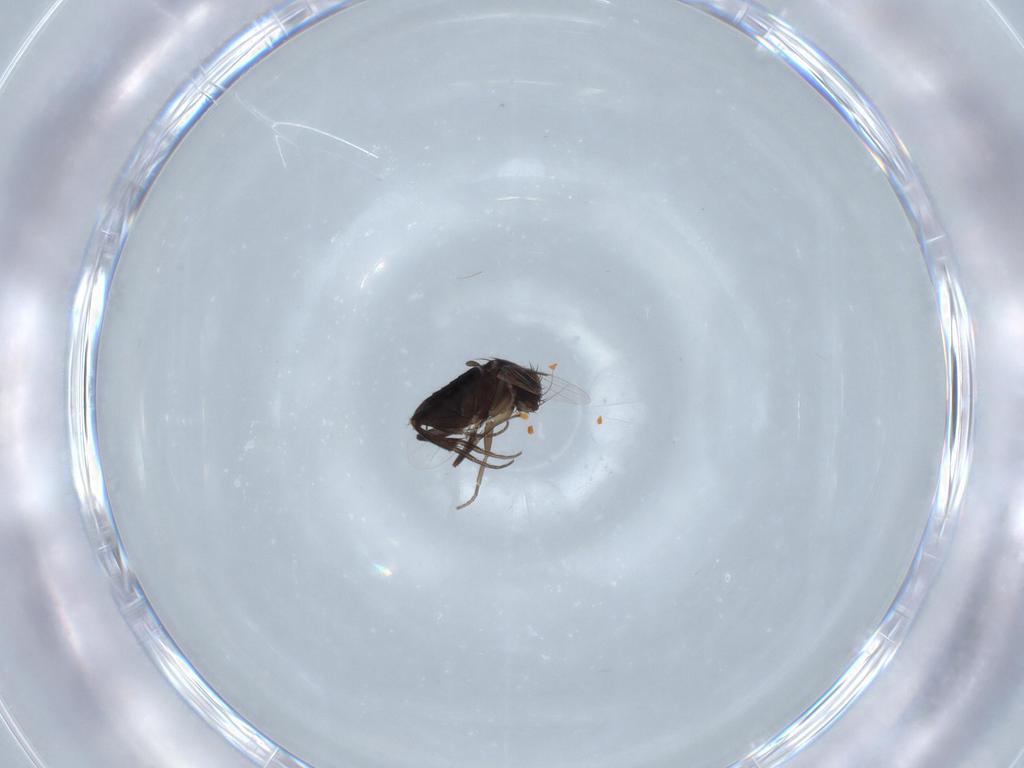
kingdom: Animalia
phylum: Arthropoda
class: Insecta
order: Diptera
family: Phoridae
